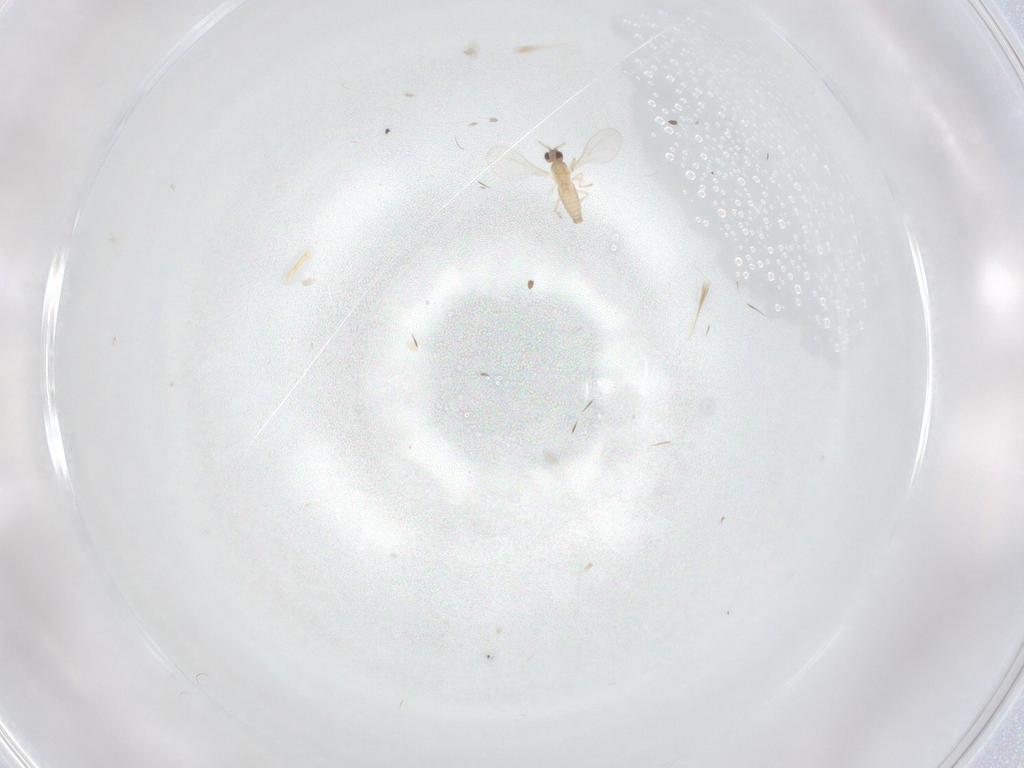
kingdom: Animalia
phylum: Arthropoda
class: Insecta
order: Diptera
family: Cecidomyiidae
